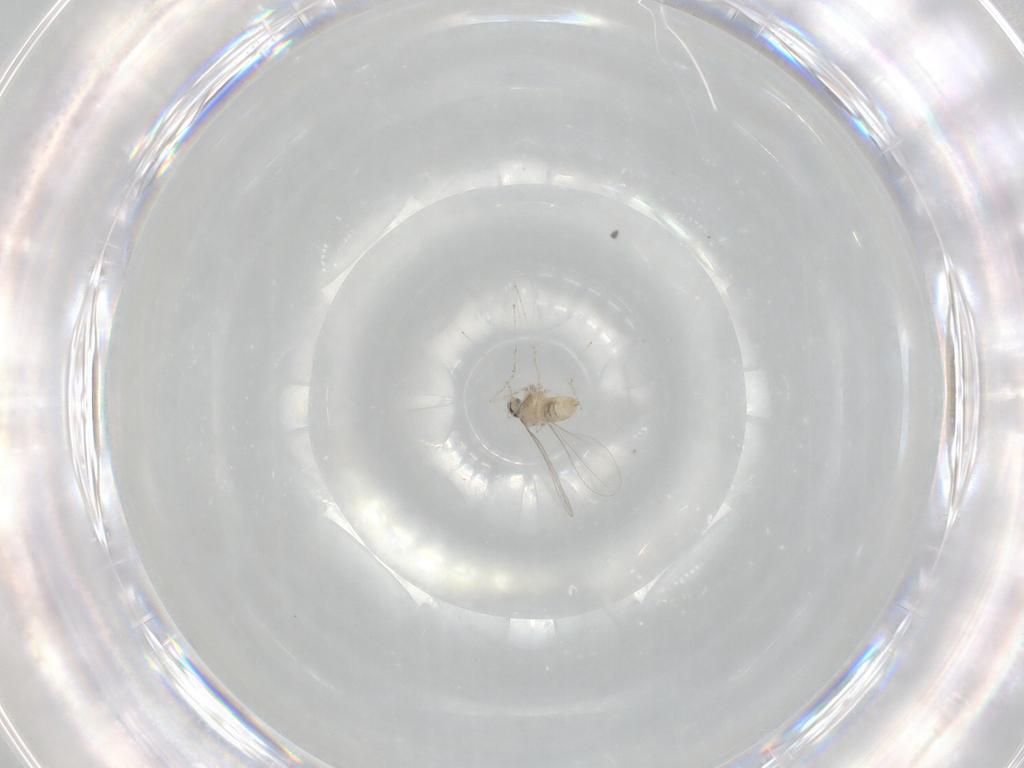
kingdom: Animalia
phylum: Arthropoda
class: Insecta
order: Diptera
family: Cecidomyiidae
